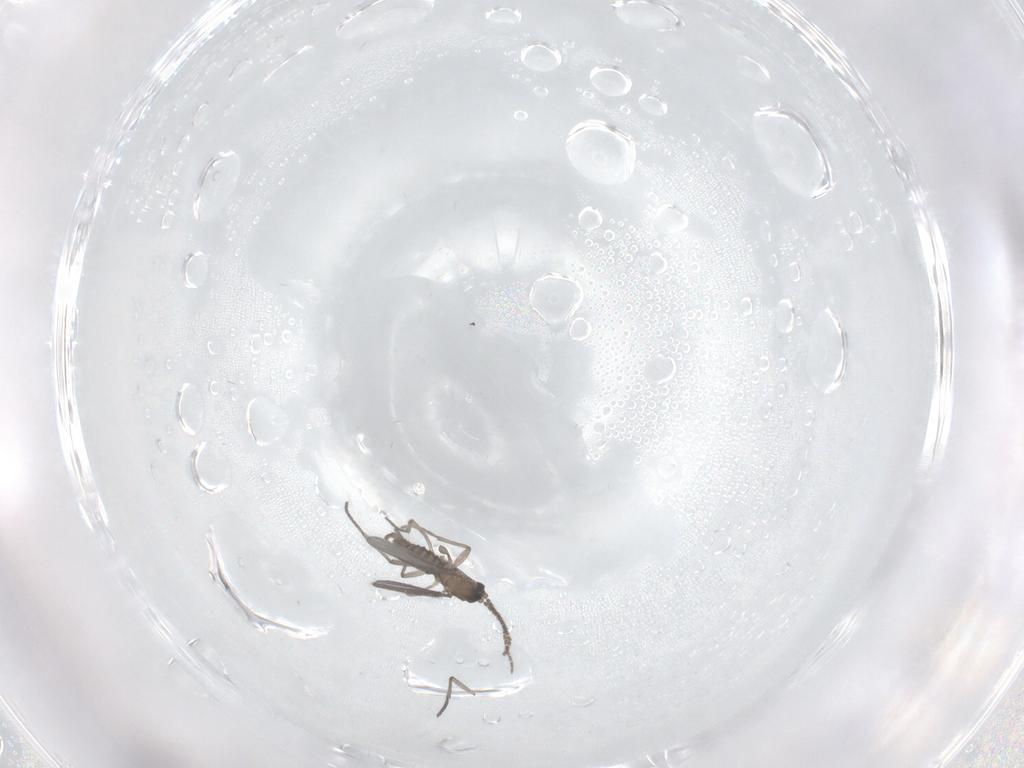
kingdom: Animalia
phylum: Arthropoda
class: Insecta
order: Diptera
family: Sciaridae
